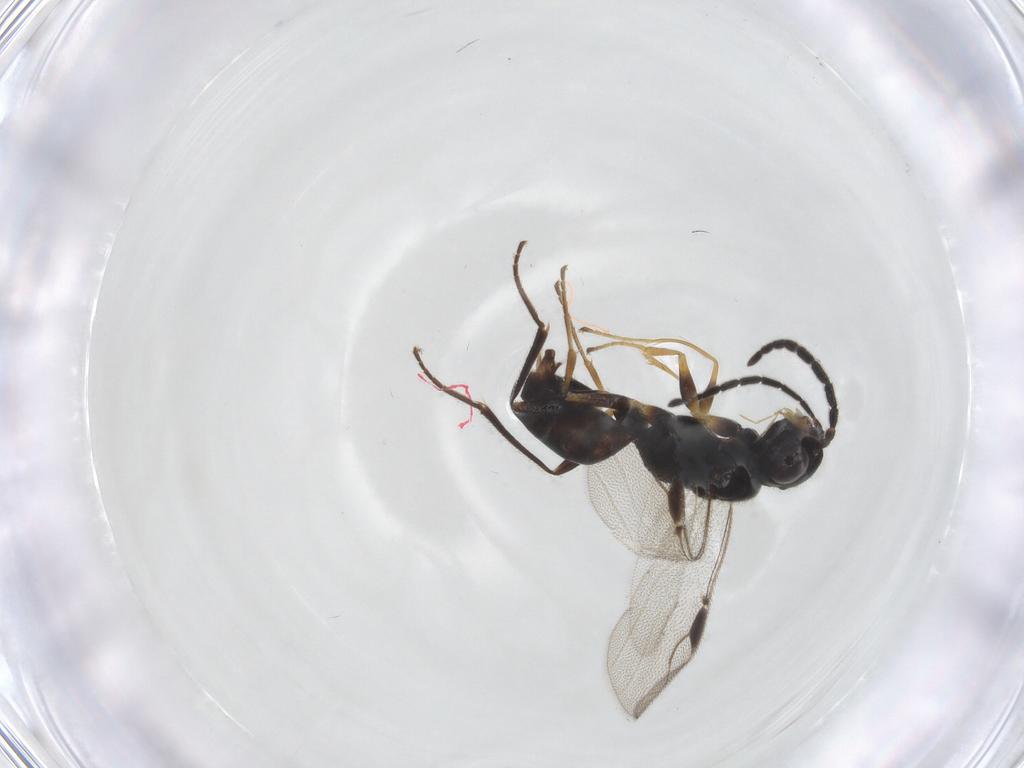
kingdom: Animalia
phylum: Arthropoda
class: Insecta
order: Hymenoptera
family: Dryinidae
